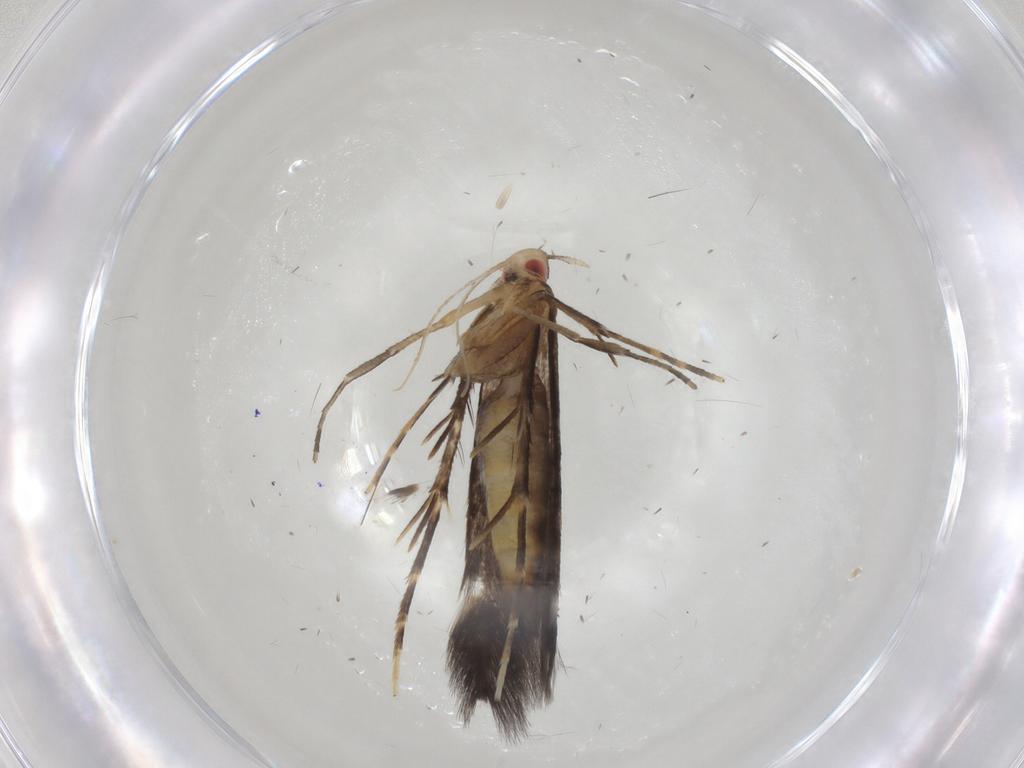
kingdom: Animalia
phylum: Arthropoda
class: Insecta
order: Lepidoptera
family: Cosmopterigidae
